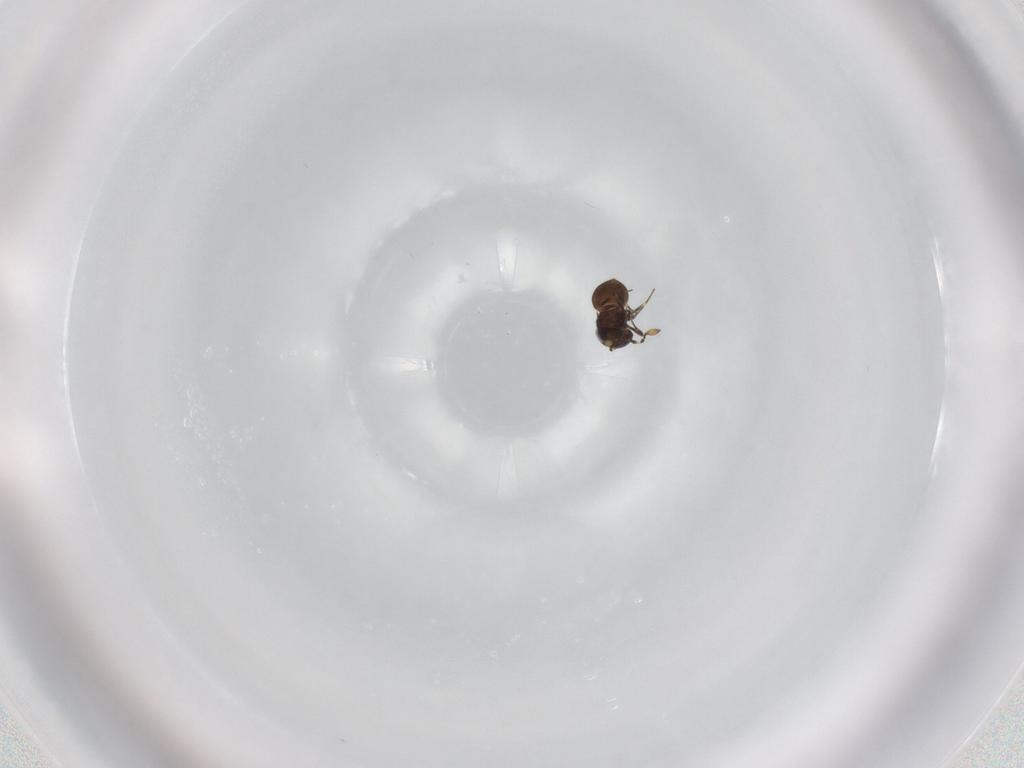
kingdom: Animalia
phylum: Arthropoda
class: Insecta
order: Hymenoptera
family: Scelionidae
